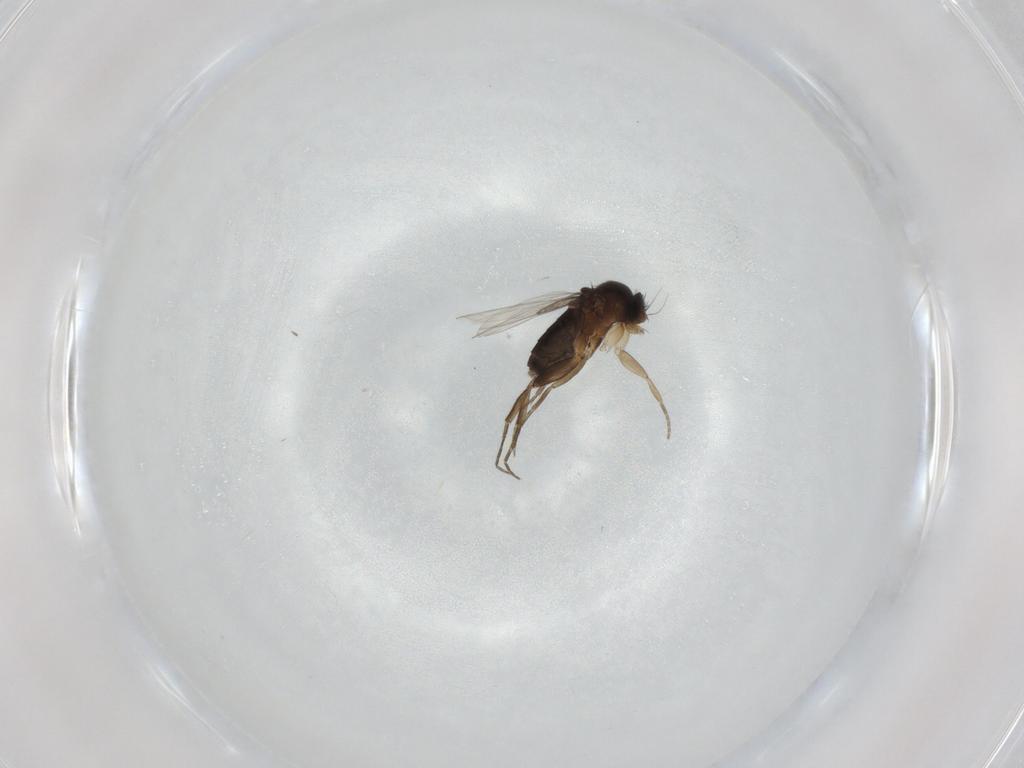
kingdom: Animalia
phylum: Arthropoda
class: Insecta
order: Diptera
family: Phoridae
